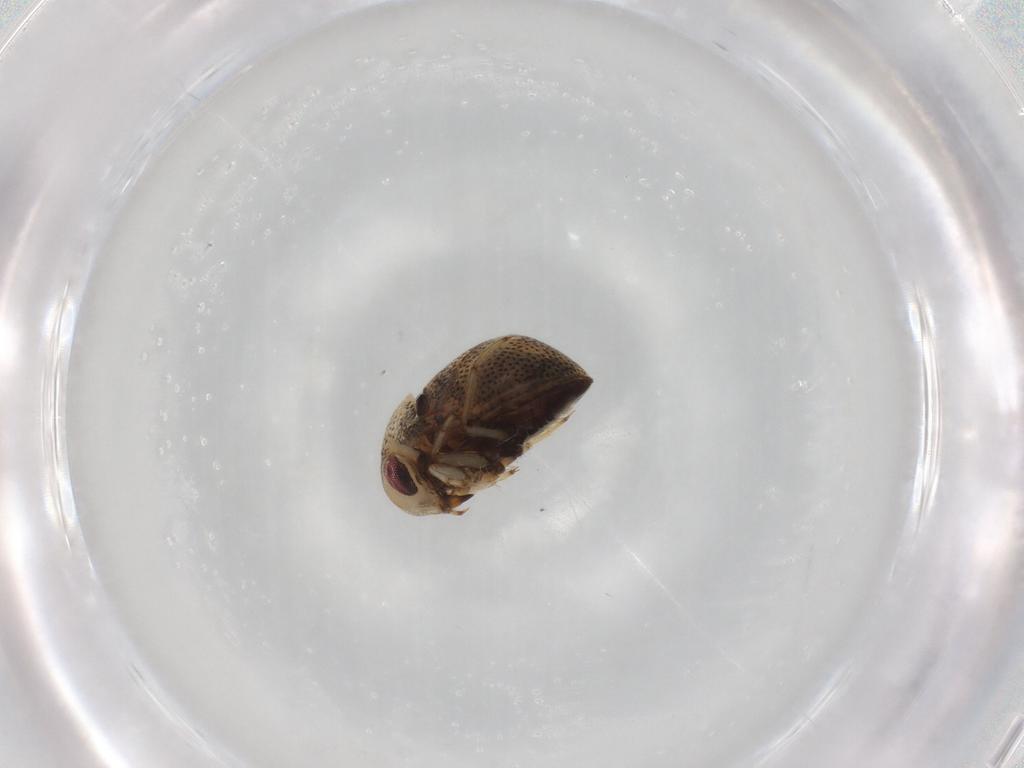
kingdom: Animalia
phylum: Arthropoda
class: Insecta
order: Hemiptera
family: Pleidae
